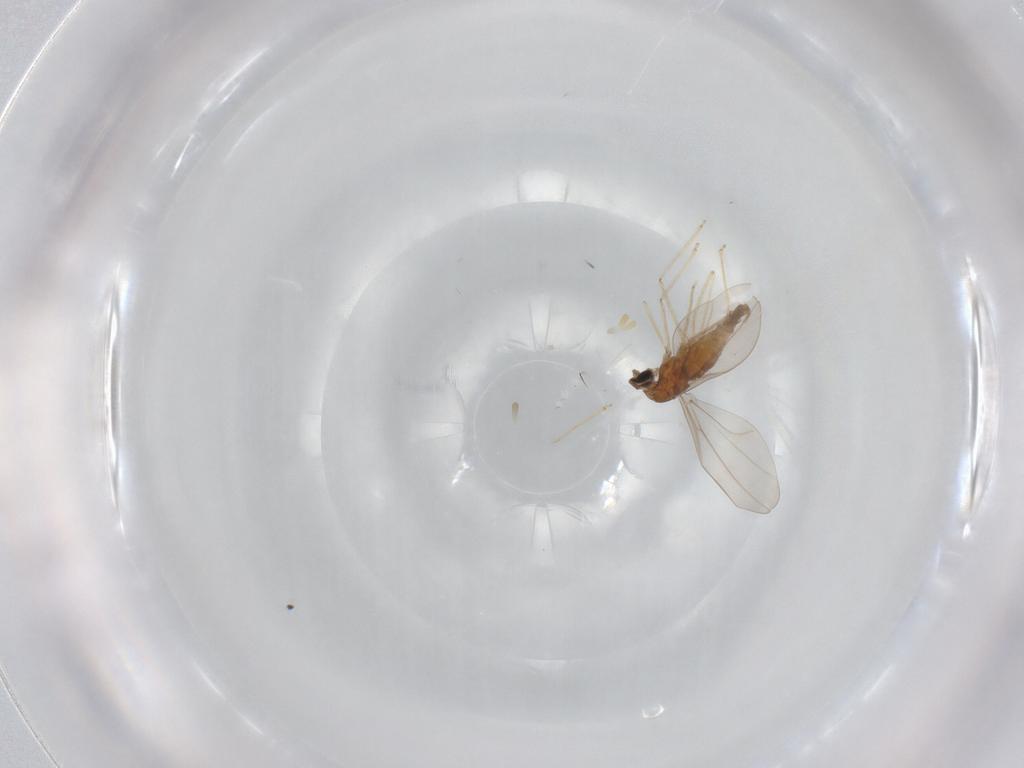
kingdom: Animalia
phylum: Arthropoda
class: Insecta
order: Diptera
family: Cecidomyiidae
